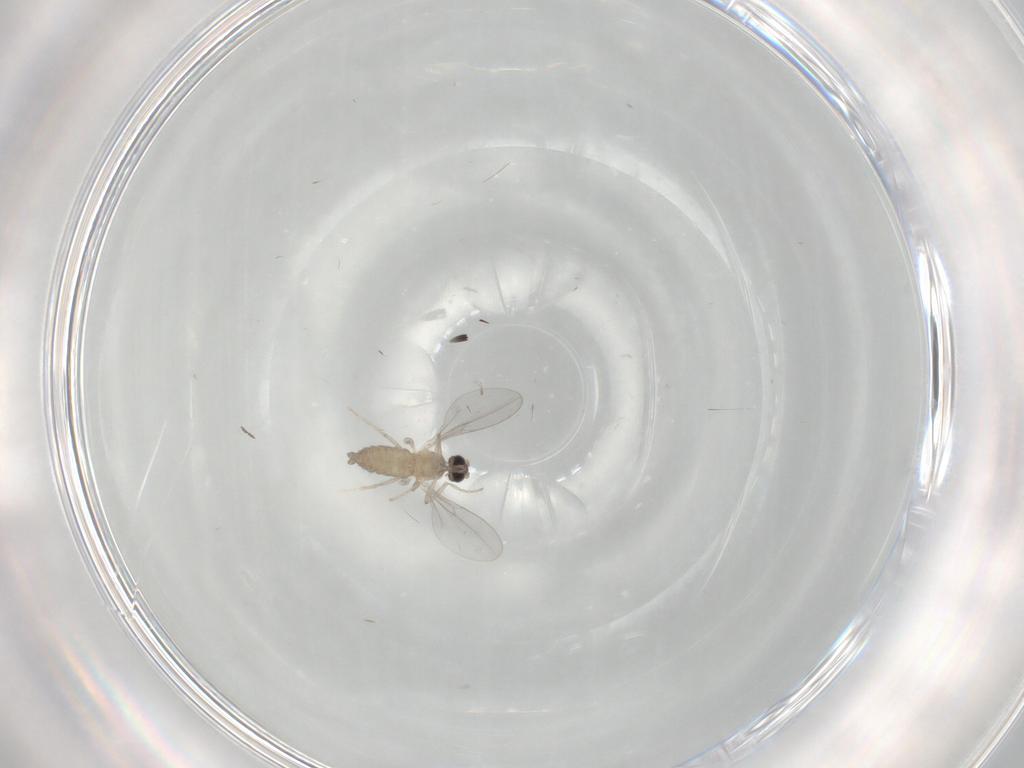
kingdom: Animalia
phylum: Arthropoda
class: Insecta
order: Diptera
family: Cecidomyiidae
